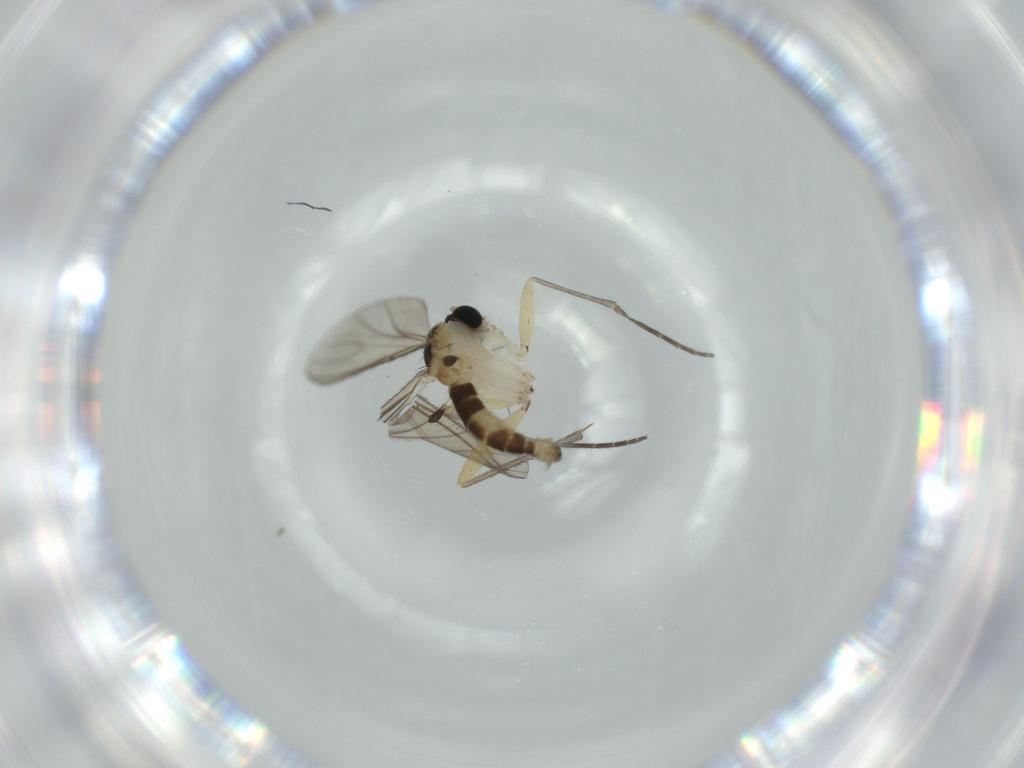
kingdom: Animalia
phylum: Arthropoda
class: Insecta
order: Diptera
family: Sciaridae
